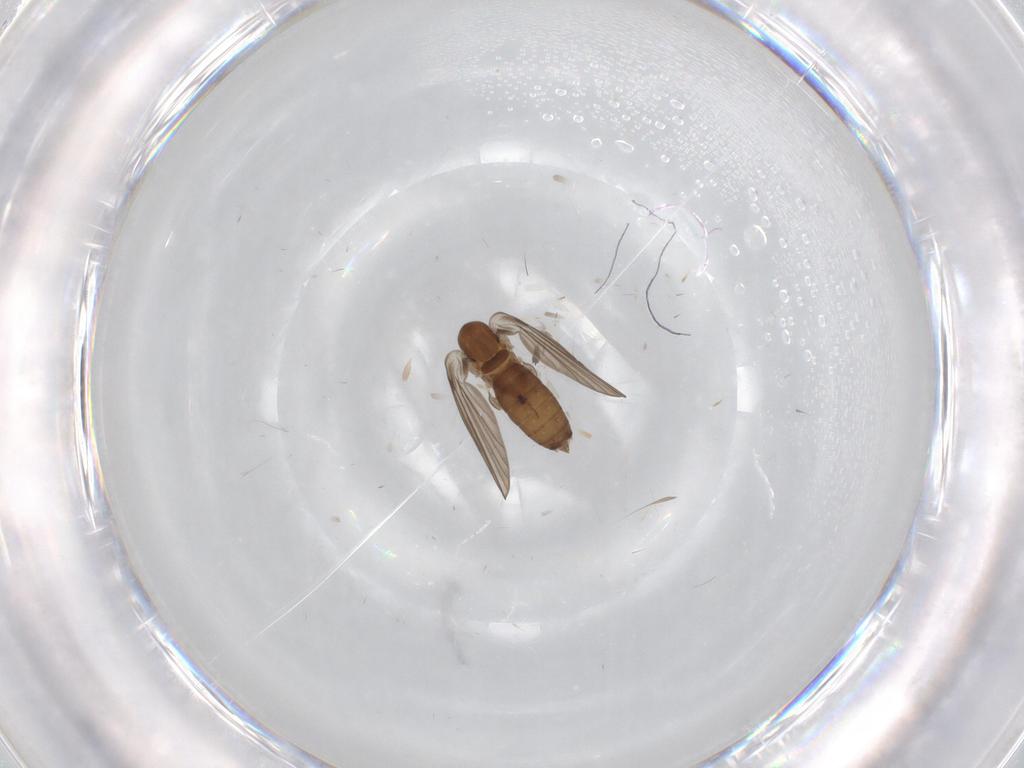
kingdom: Animalia
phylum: Arthropoda
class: Insecta
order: Diptera
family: Psychodidae
